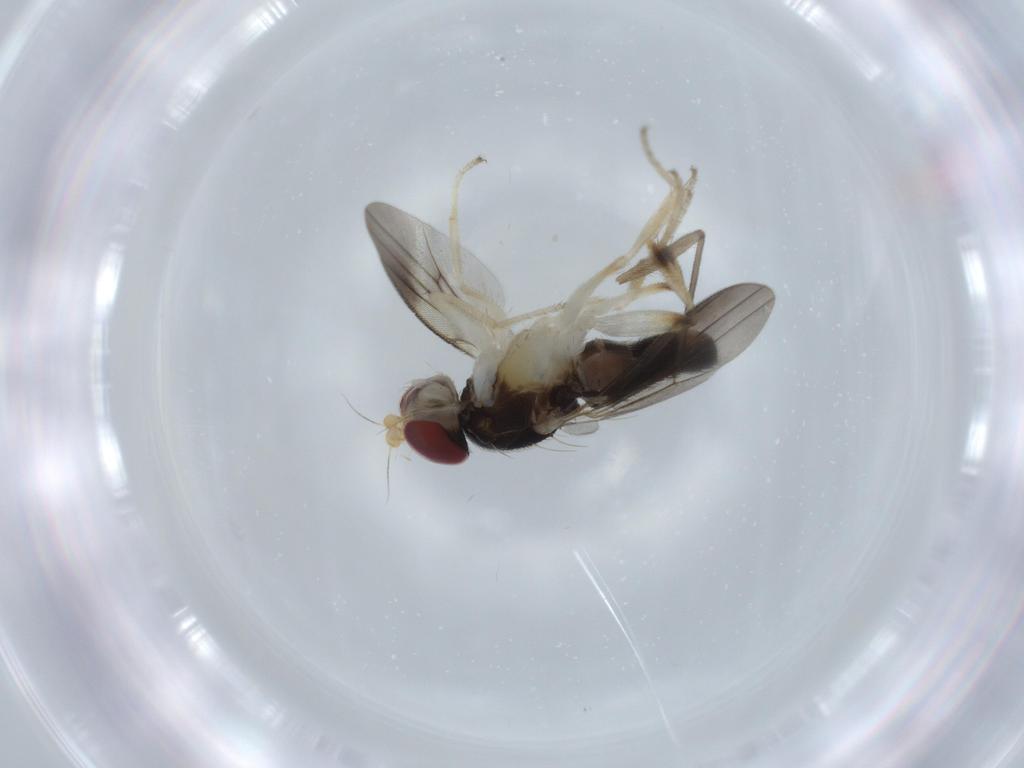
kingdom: Animalia
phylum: Arthropoda
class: Insecta
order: Diptera
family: Clusiidae
